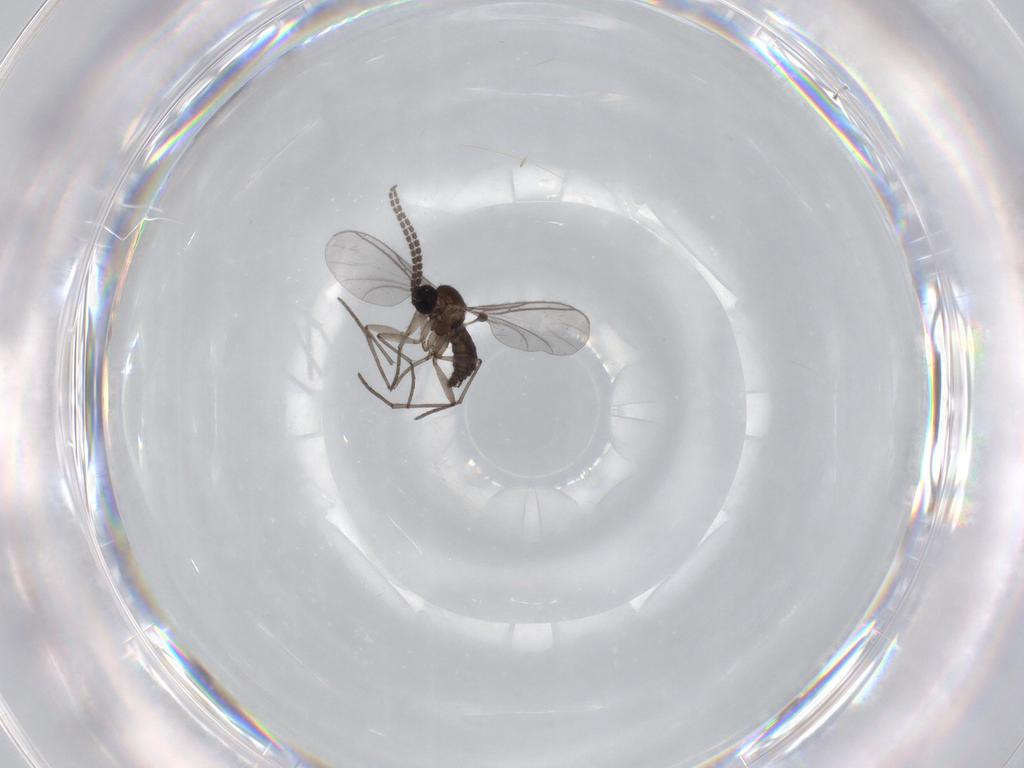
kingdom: Animalia
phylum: Arthropoda
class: Insecta
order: Diptera
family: Sciaridae
